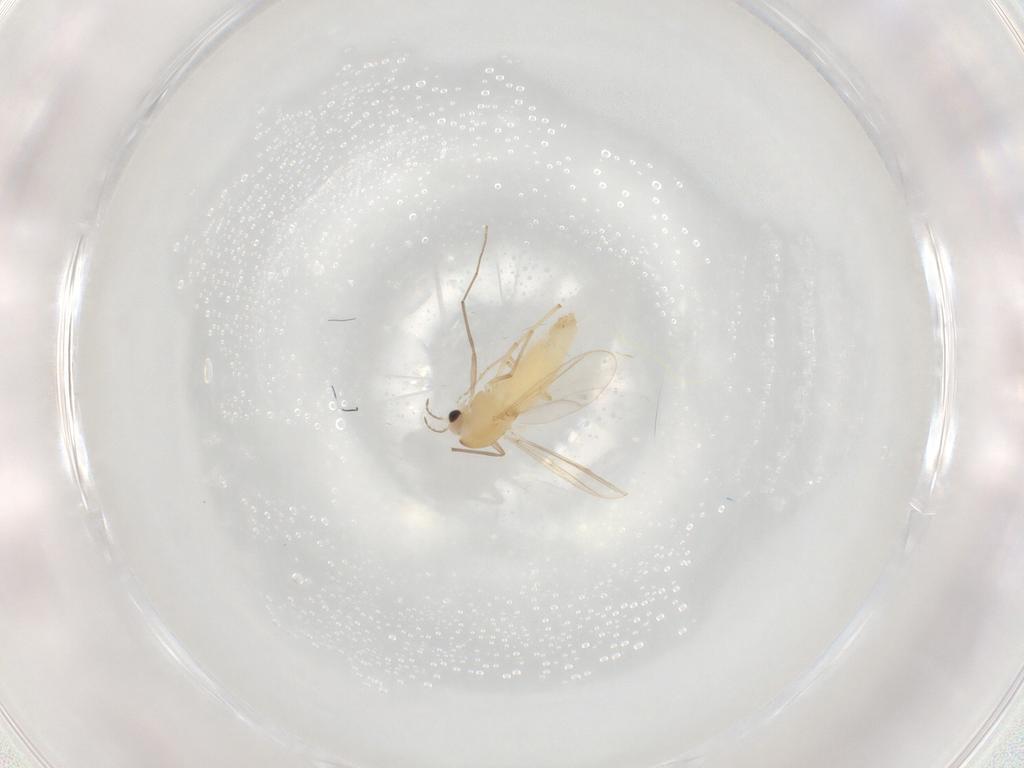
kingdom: Animalia
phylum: Arthropoda
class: Insecta
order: Diptera
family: Chironomidae
